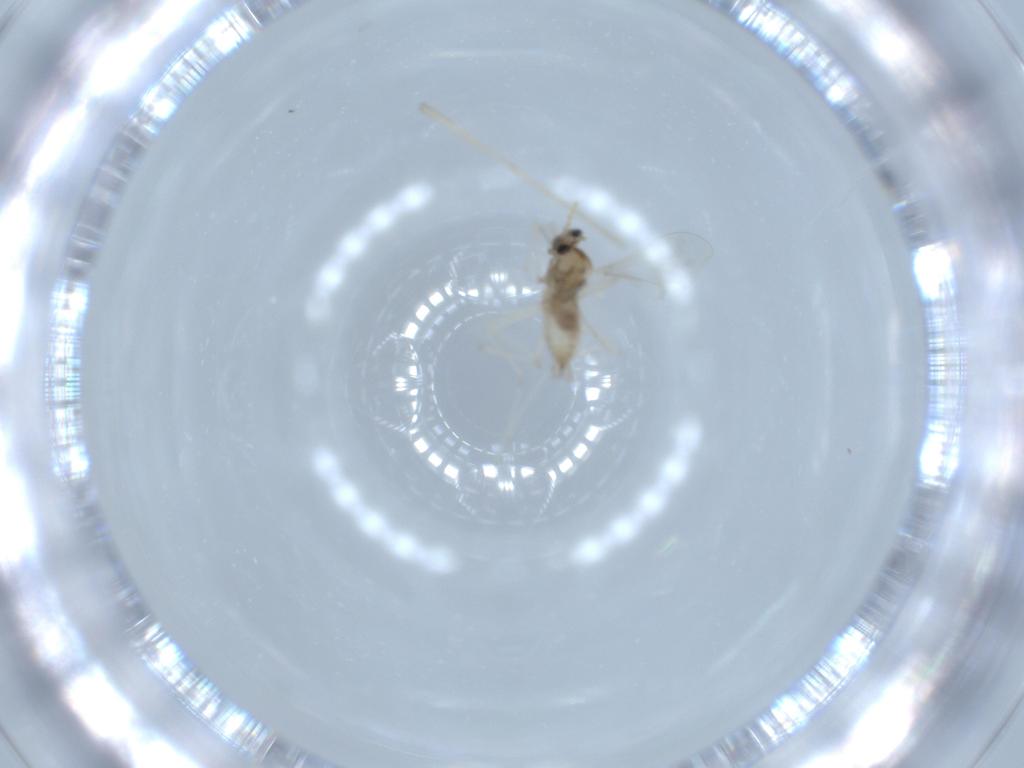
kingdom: Animalia
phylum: Arthropoda
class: Insecta
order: Diptera
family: Cecidomyiidae
